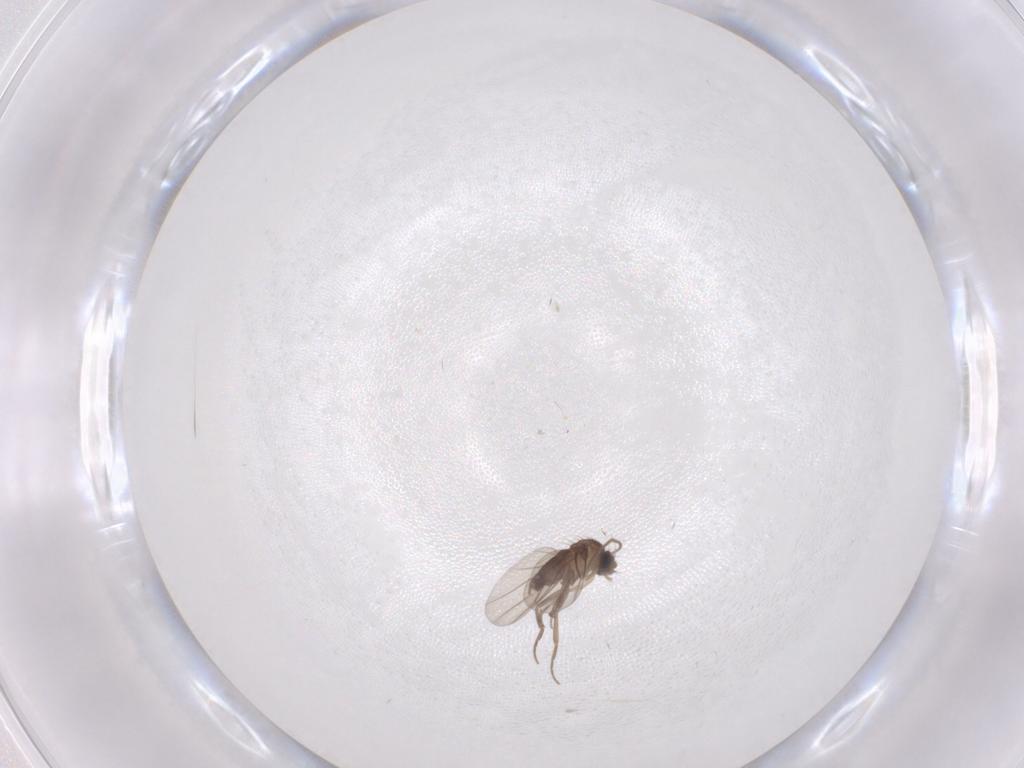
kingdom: Animalia
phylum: Arthropoda
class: Insecta
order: Diptera
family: Phoridae
